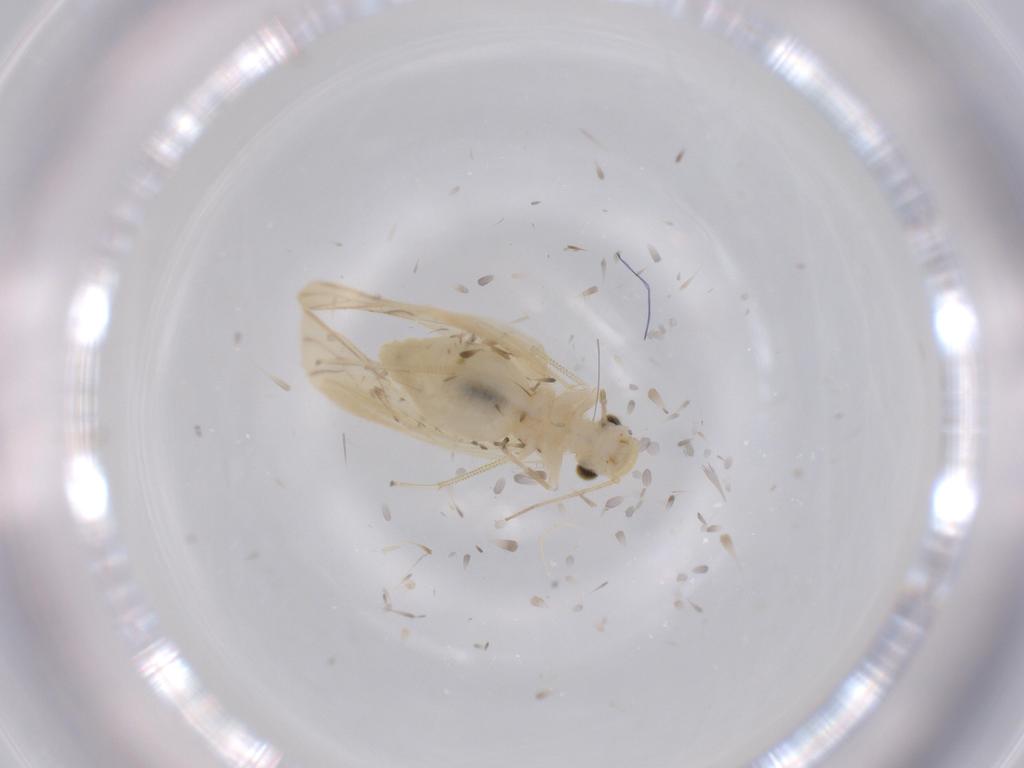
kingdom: Animalia
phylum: Arthropoda
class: Insecta
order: Psocodea
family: Caeciliusidae
